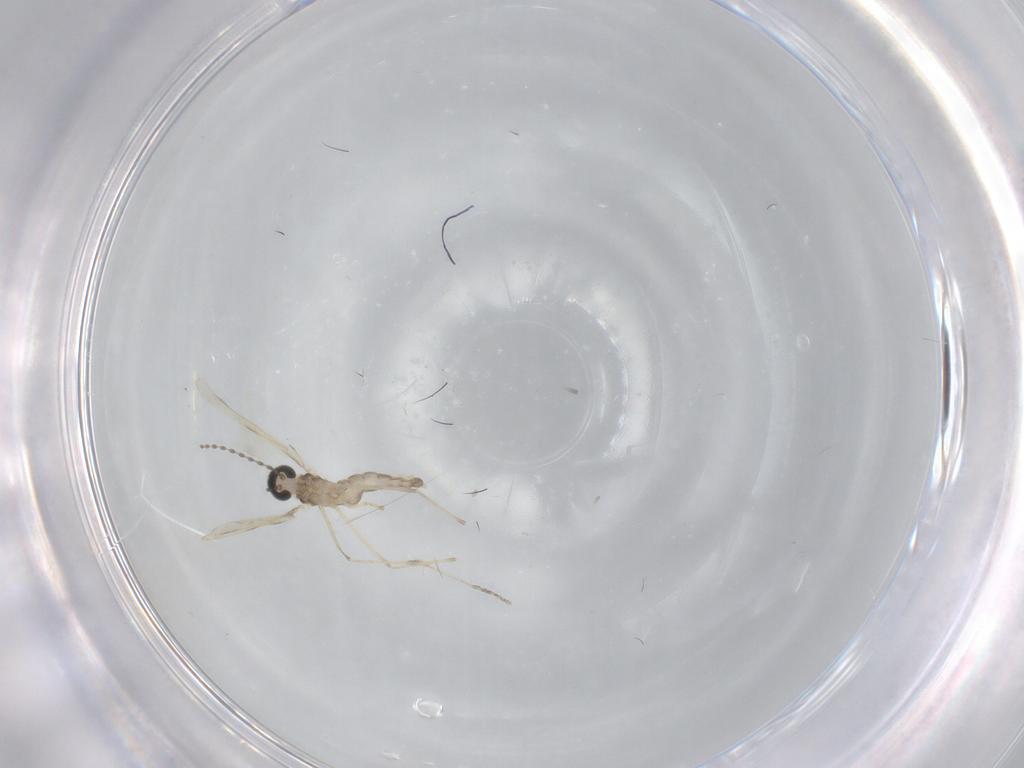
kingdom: Animalia
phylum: Arthropoda
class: Insecta
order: Diptera
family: Cecidomyiidae
